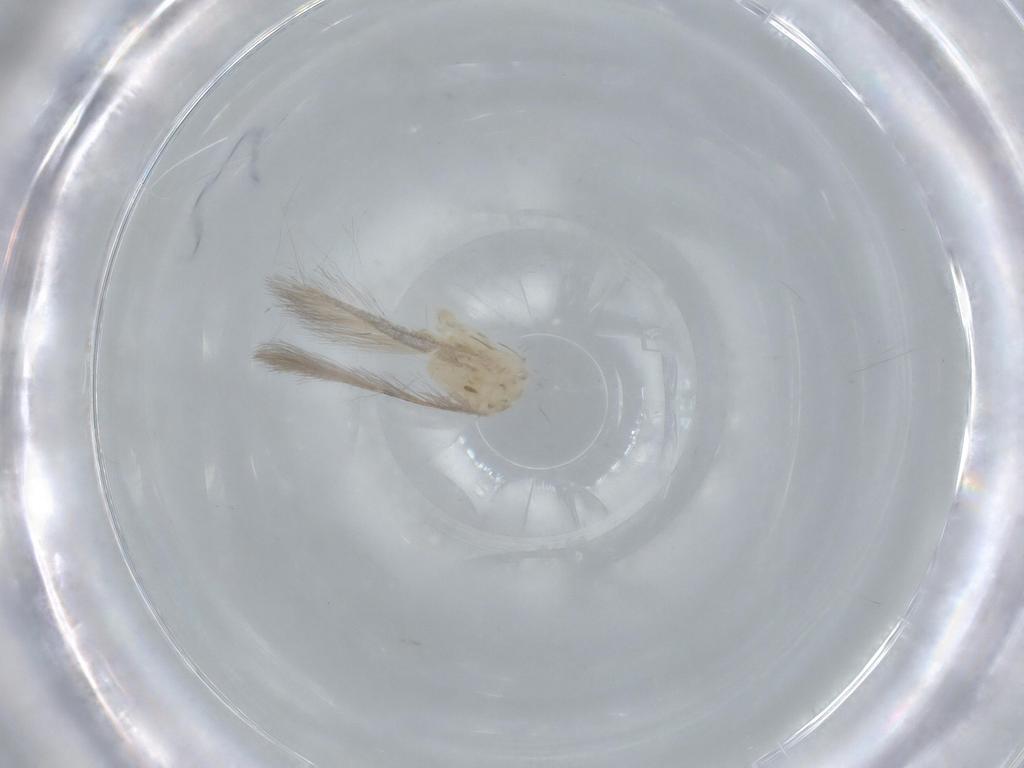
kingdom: Animalia
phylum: Arthropoda
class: Insecta
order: Lepidoptera
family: Gracillariidae
